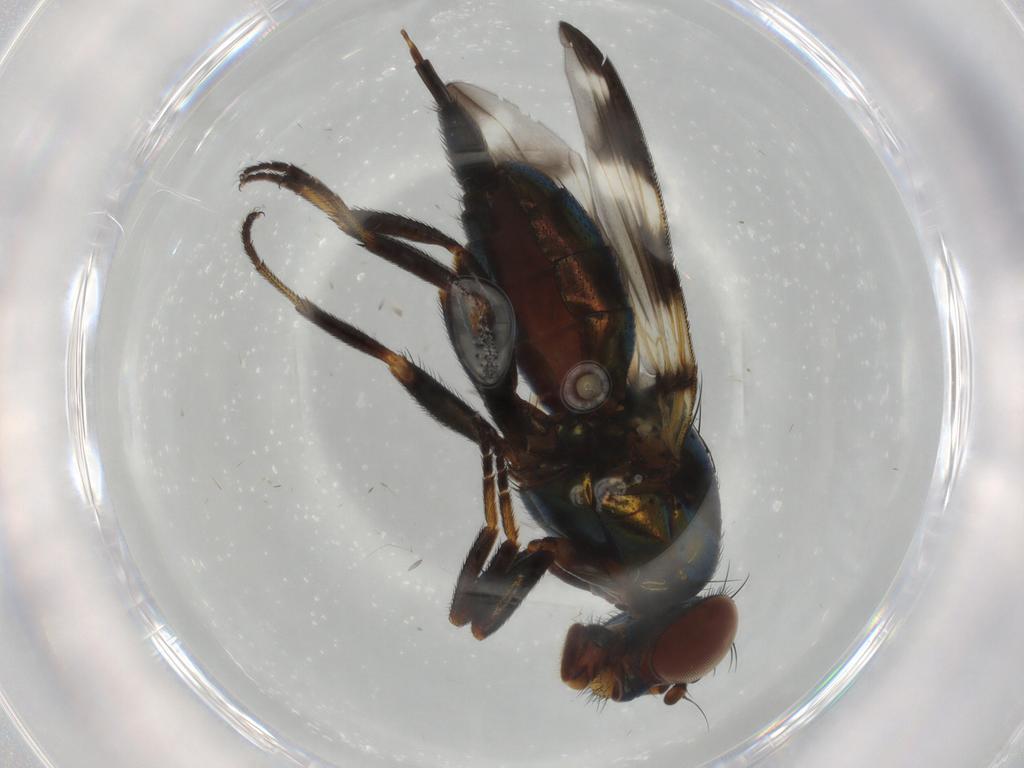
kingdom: Animalia
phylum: Arthropoda
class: Insecta
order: Diptera
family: Ulidiidae
